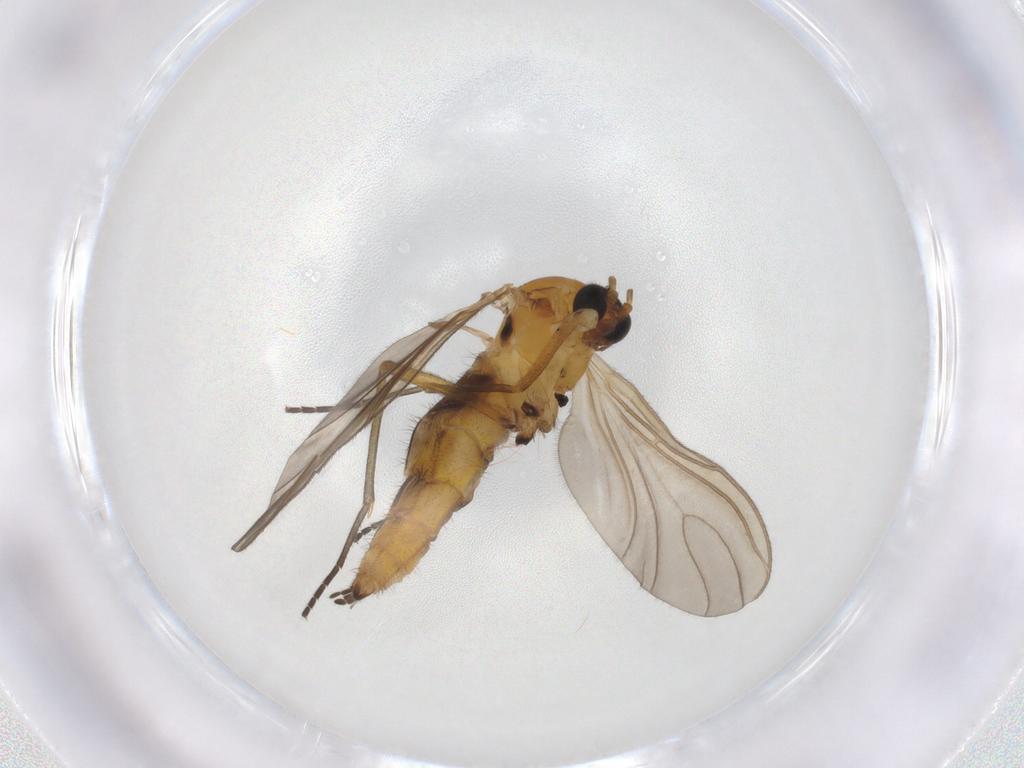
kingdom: Animalia
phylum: Arthropoda
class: Insecta
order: Diptera
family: Sciaridae
